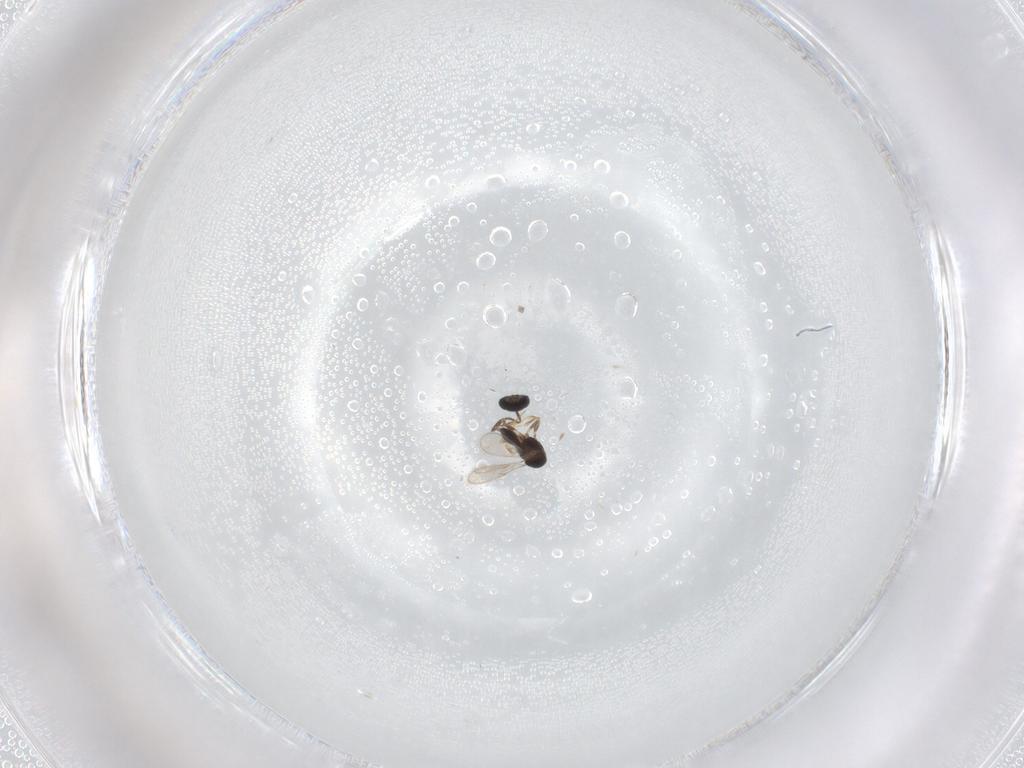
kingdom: Animalia
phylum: Arthropoda
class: Insecta
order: Hymenoptera
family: Scelionidae
